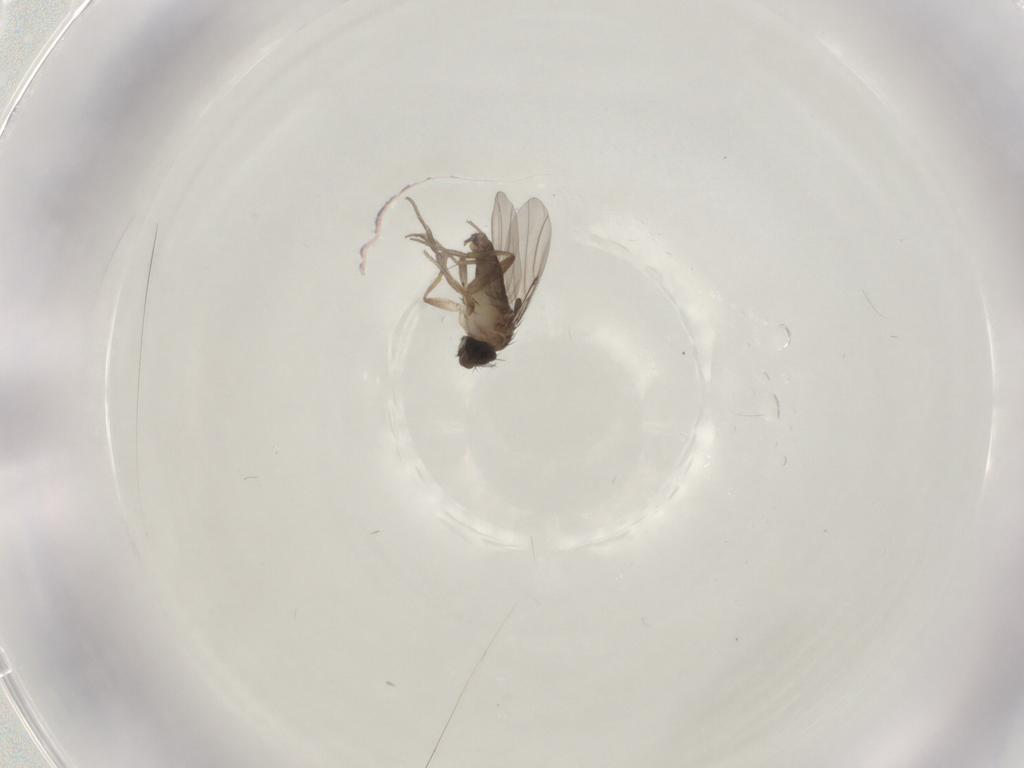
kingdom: Animalia
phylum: Arthropoda
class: Insecta
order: Diptera
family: Phoridae
